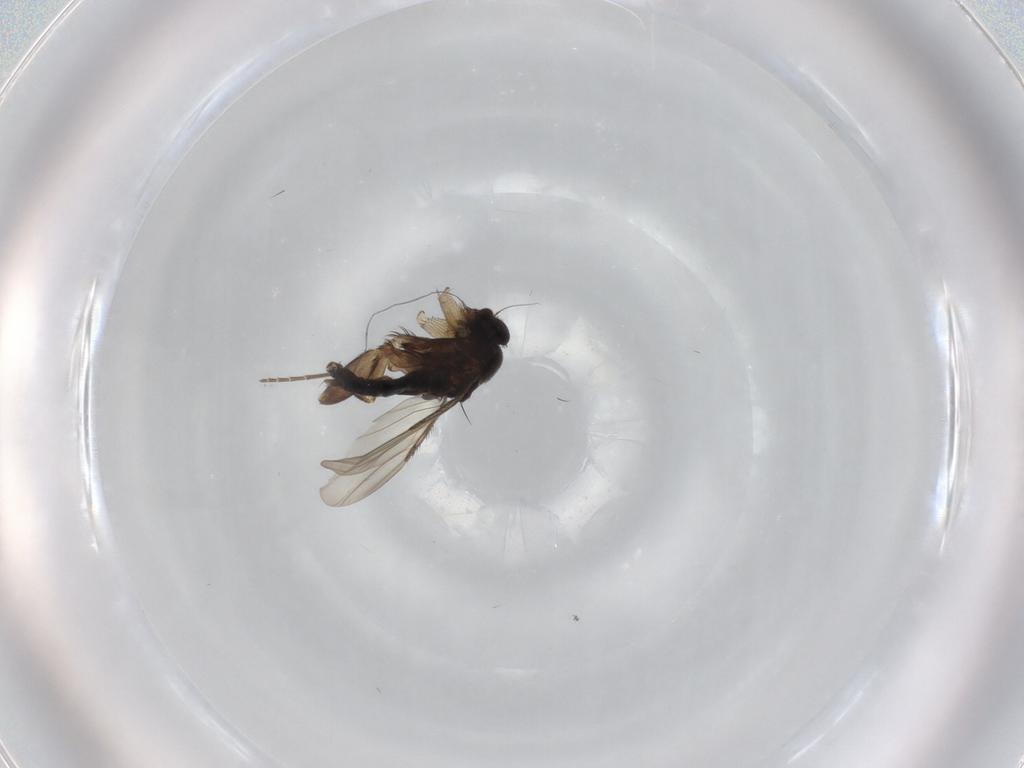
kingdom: Animalia
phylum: Arthropoda
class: Insecta
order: Diptera
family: Phoridae
